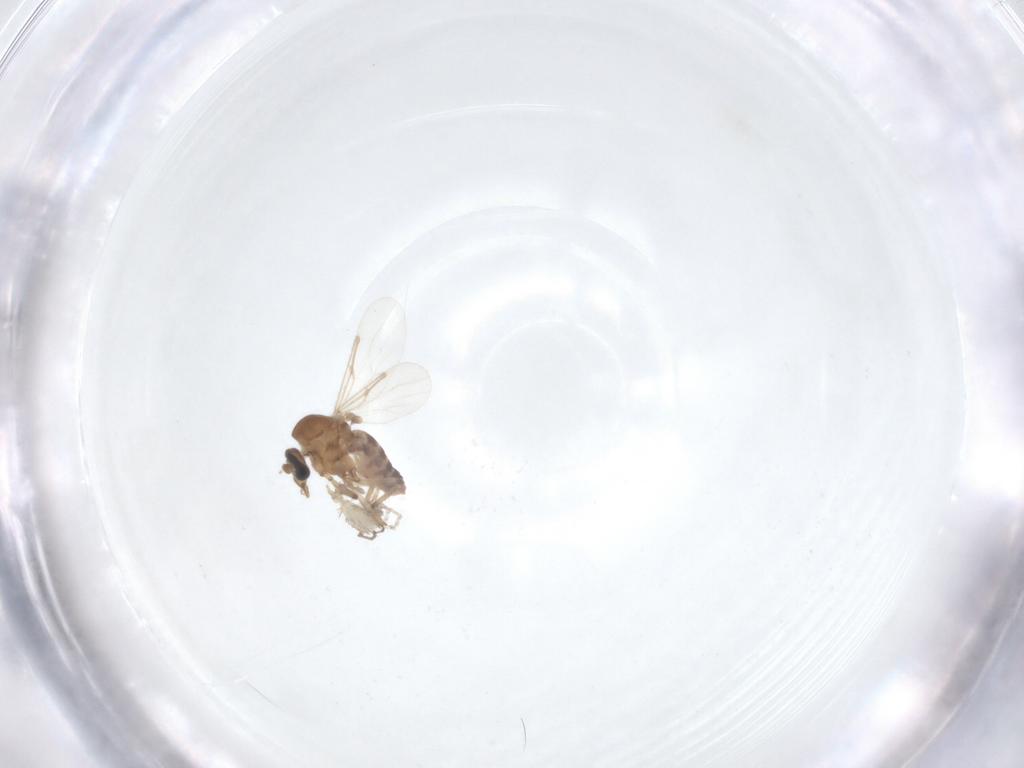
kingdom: Animalia
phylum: Arthropoda
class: Insecta
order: Diptera
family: Ceratopogonidae
